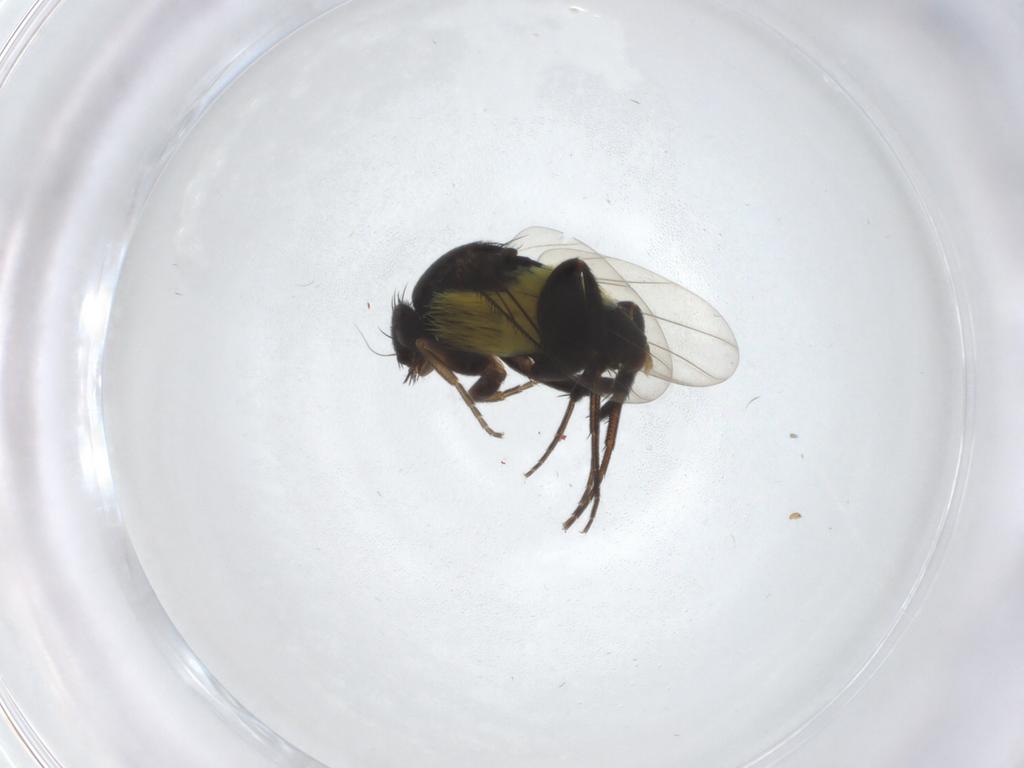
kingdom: Animalia
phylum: Arthropoda
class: Insecta
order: Diptera
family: Phoridae
